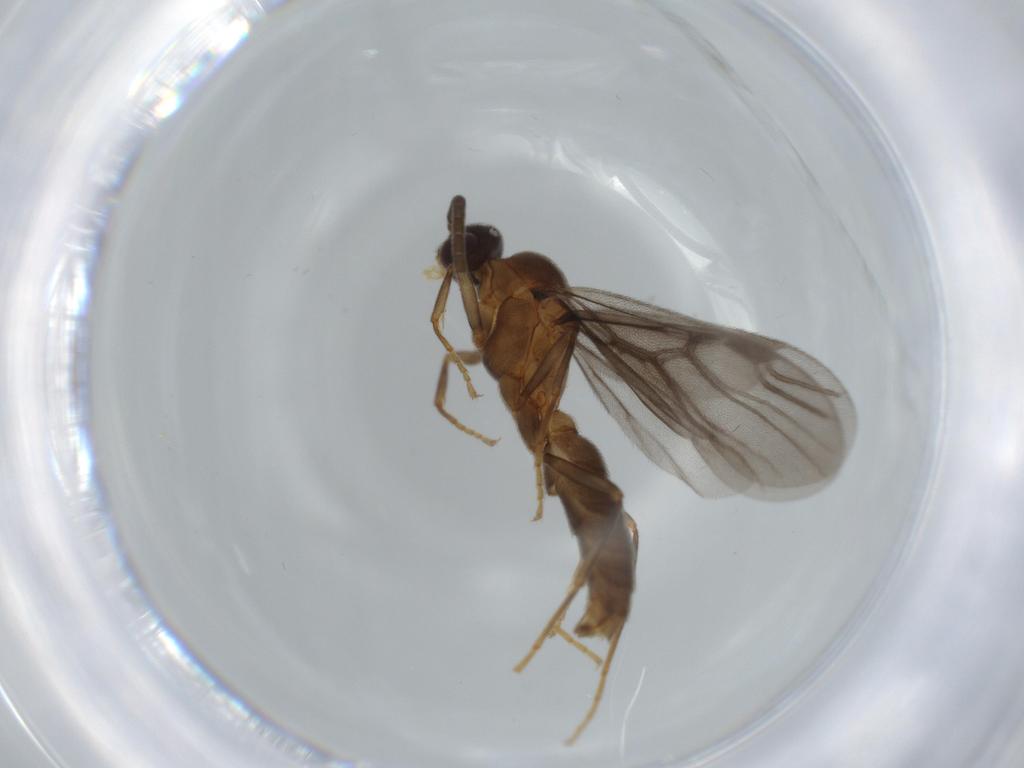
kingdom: Animalia
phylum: Arthropoda
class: Insecta
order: Hymenoptera
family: Formicidae
